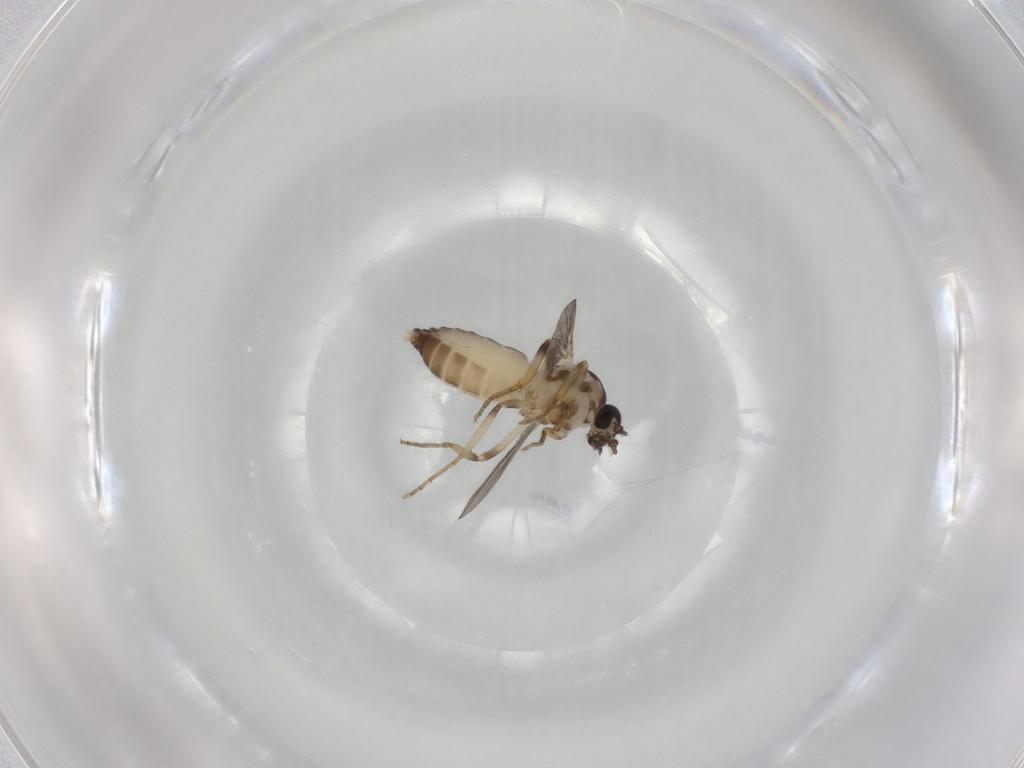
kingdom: Animalia
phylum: Arthropoda
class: Insecta
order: Diptera
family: Ceratopogonidae
